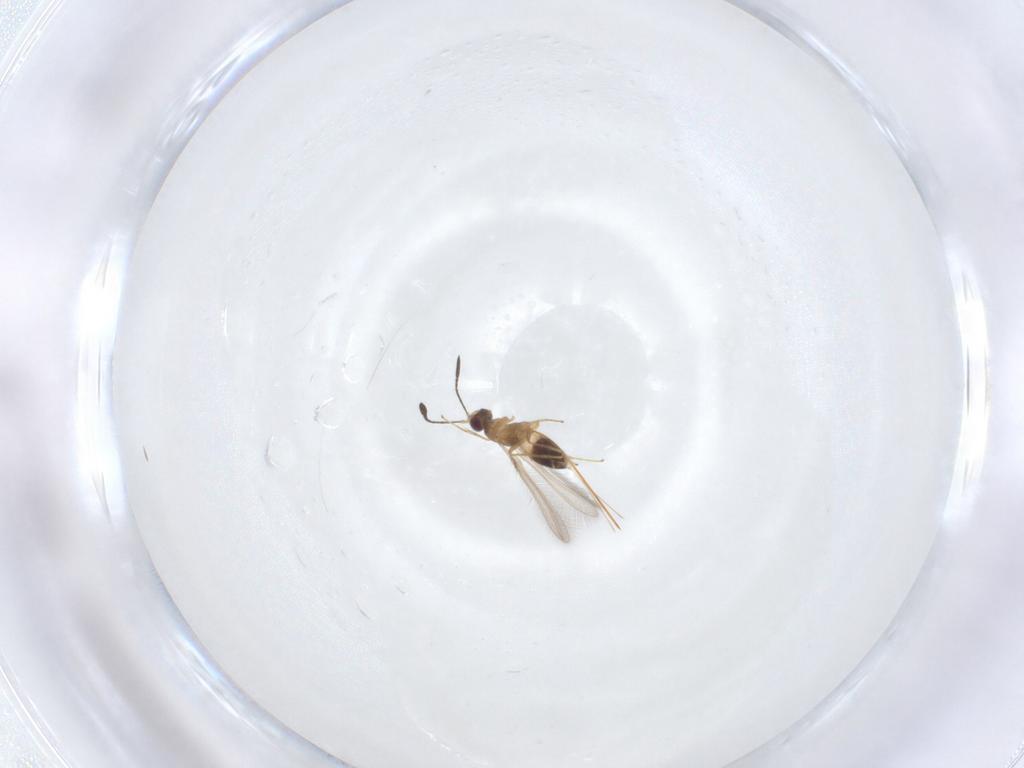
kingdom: Animalia
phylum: Arthropoda
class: Insecta
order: Hymenoptera
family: Mymaridae
